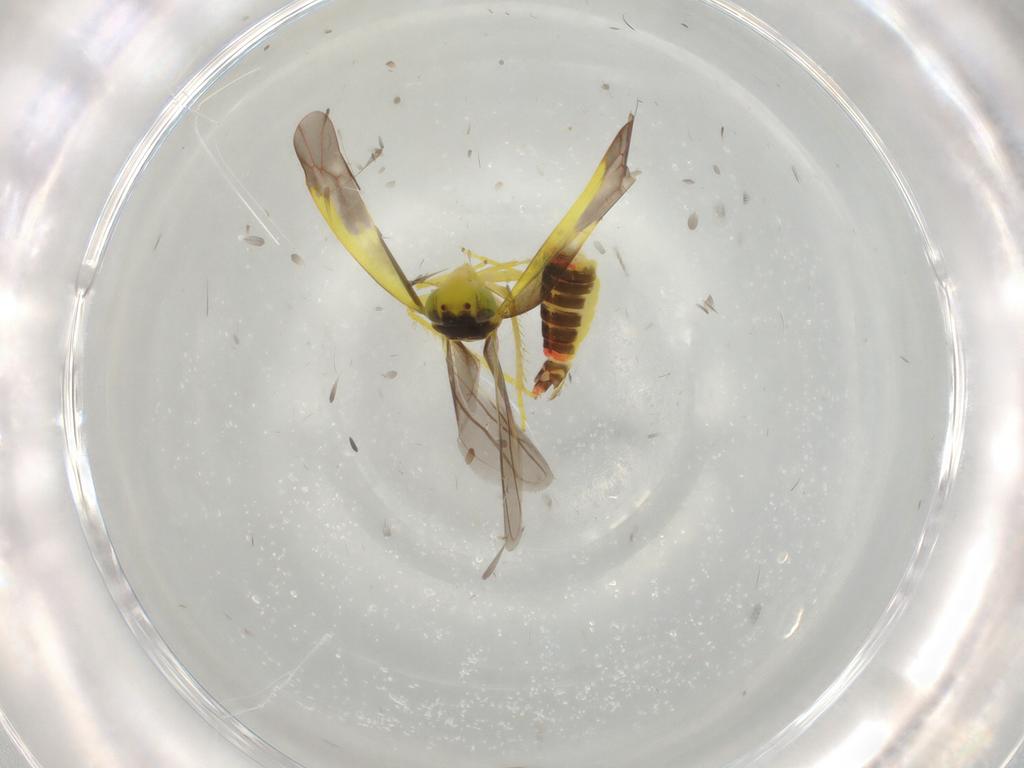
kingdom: Animalia
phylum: Arthropoda
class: Insecta
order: Hemiptera
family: Cicadellidae
